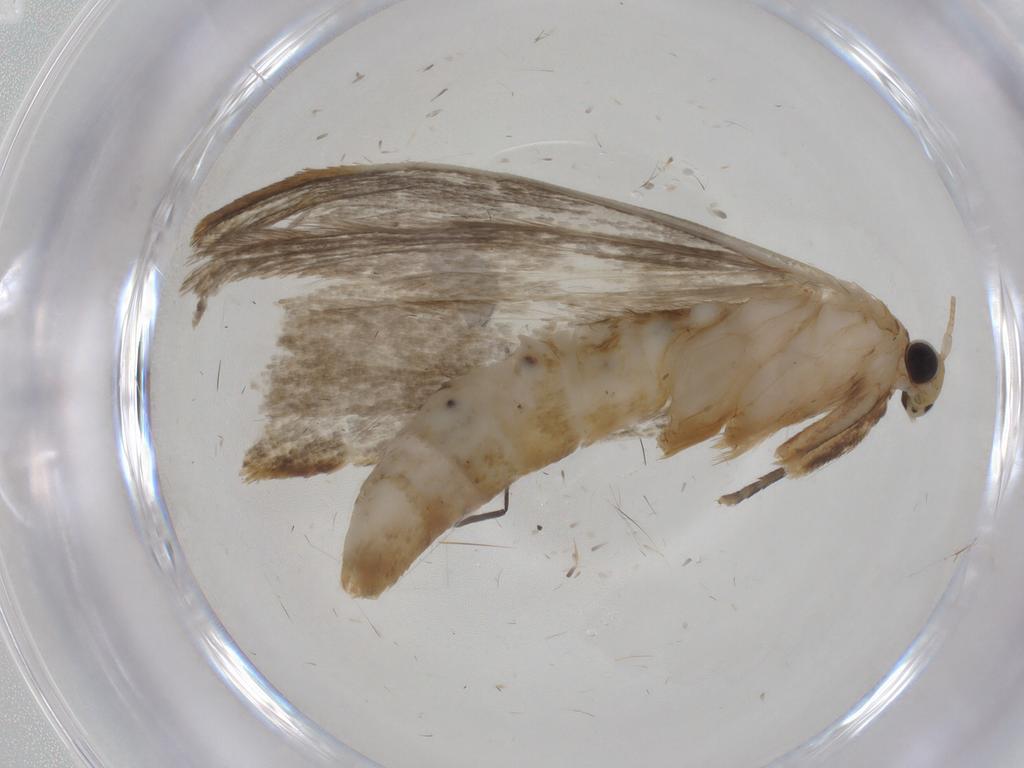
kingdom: Animalia
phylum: Arthropoda
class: Insecta
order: Lepidoptera
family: Tineidae
